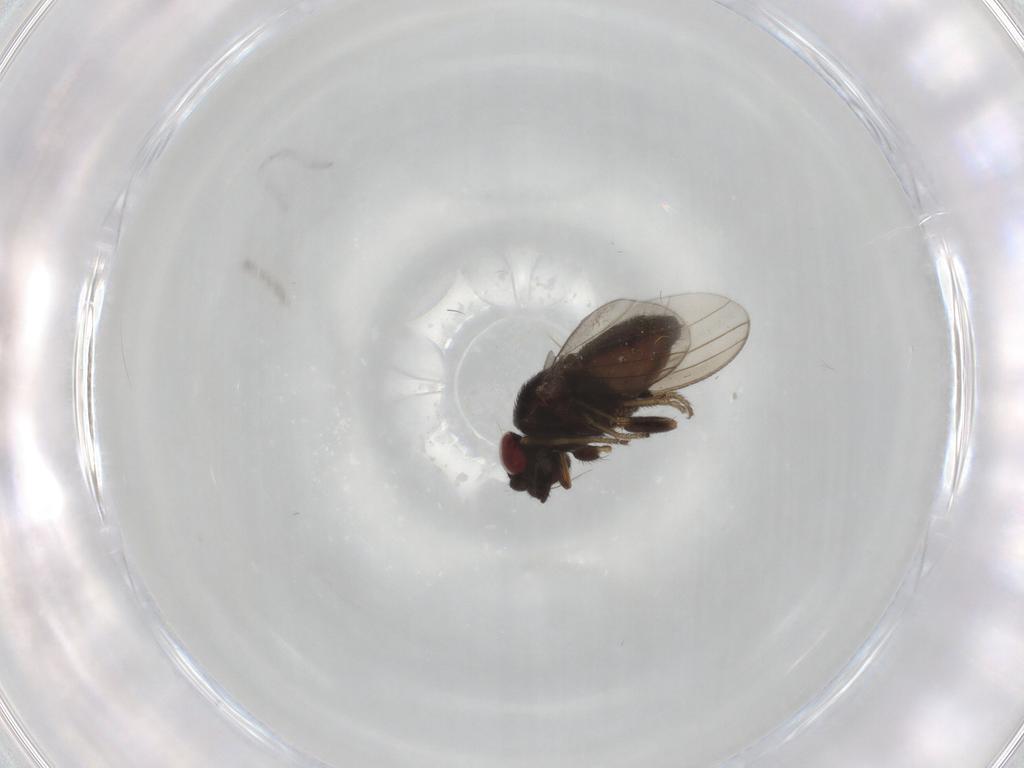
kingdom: Animalia
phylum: Arthropoda
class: Insecta
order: Diptera
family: Milichiidae
